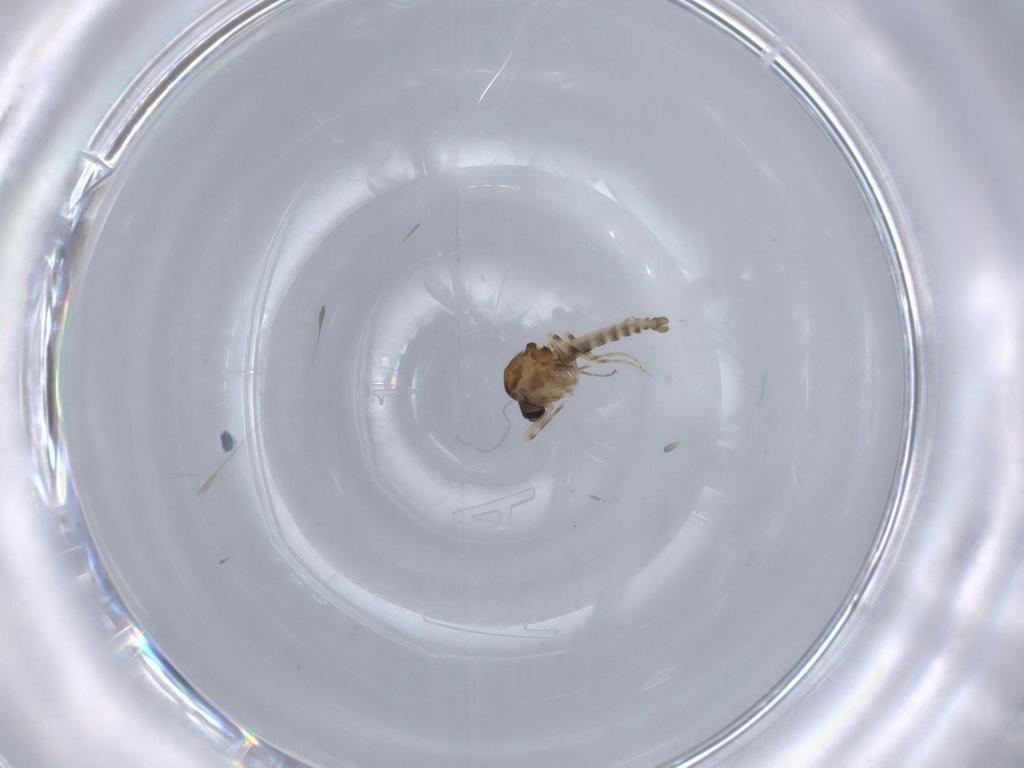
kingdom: Animalia
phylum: Arthropoda
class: Insecta
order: Diptera
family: Ceratopogonidae
